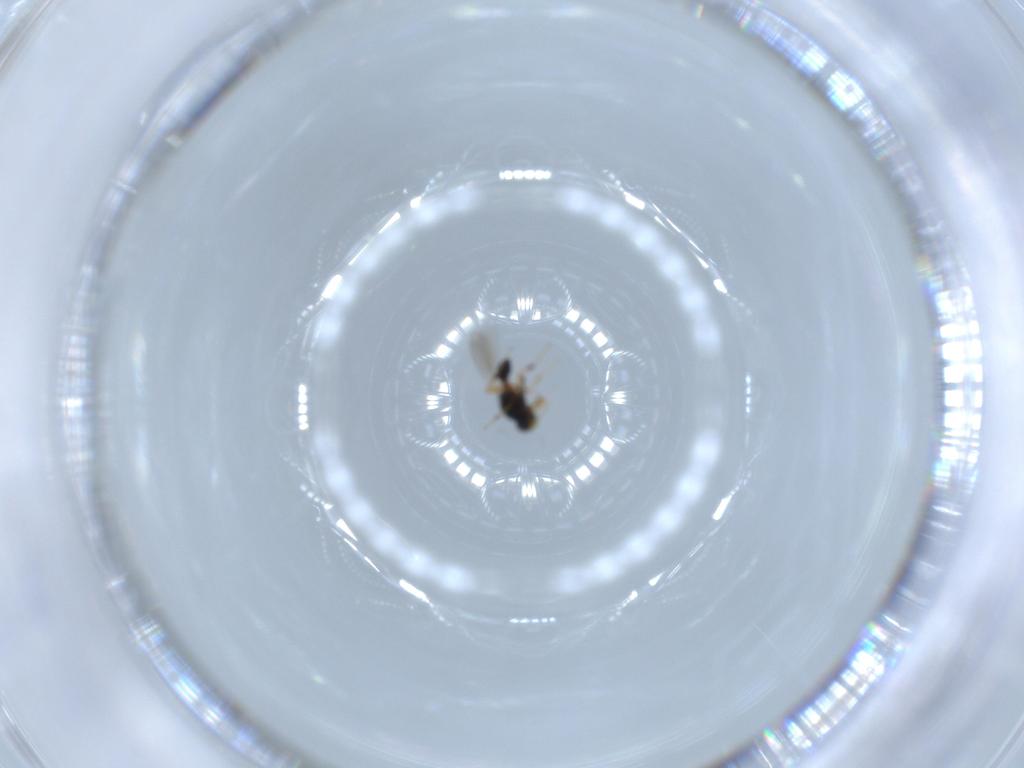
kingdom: Animalia
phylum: Arthropoda
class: Insecta
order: Hymenoptera
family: Platygastridae
